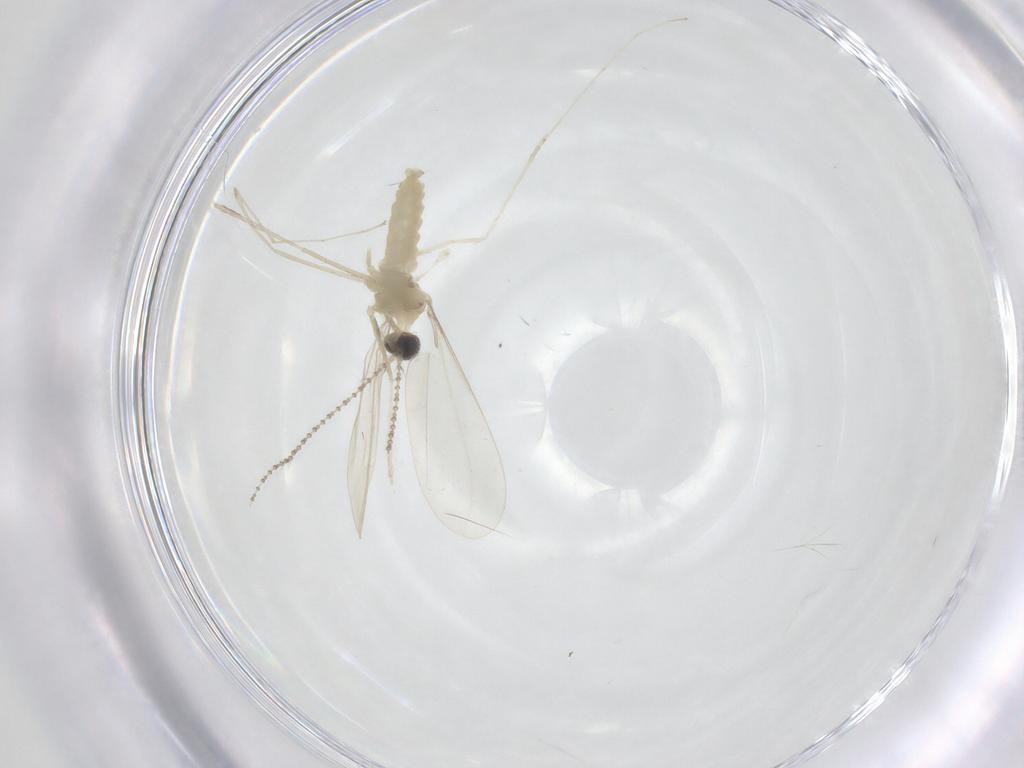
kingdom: Animalia
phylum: Arthropoda
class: Insecta
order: Diptera
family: Cecidomyiidae
